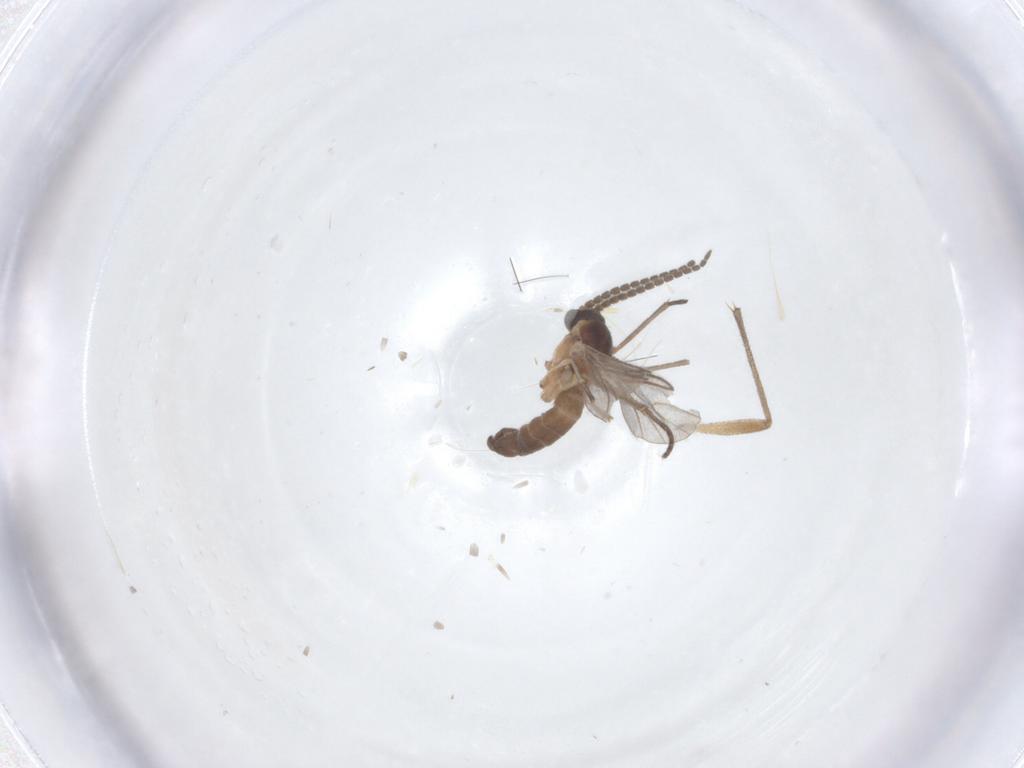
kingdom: Animalia
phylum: Arthropoda
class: Insecta
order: Diptera
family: Sciaridae
